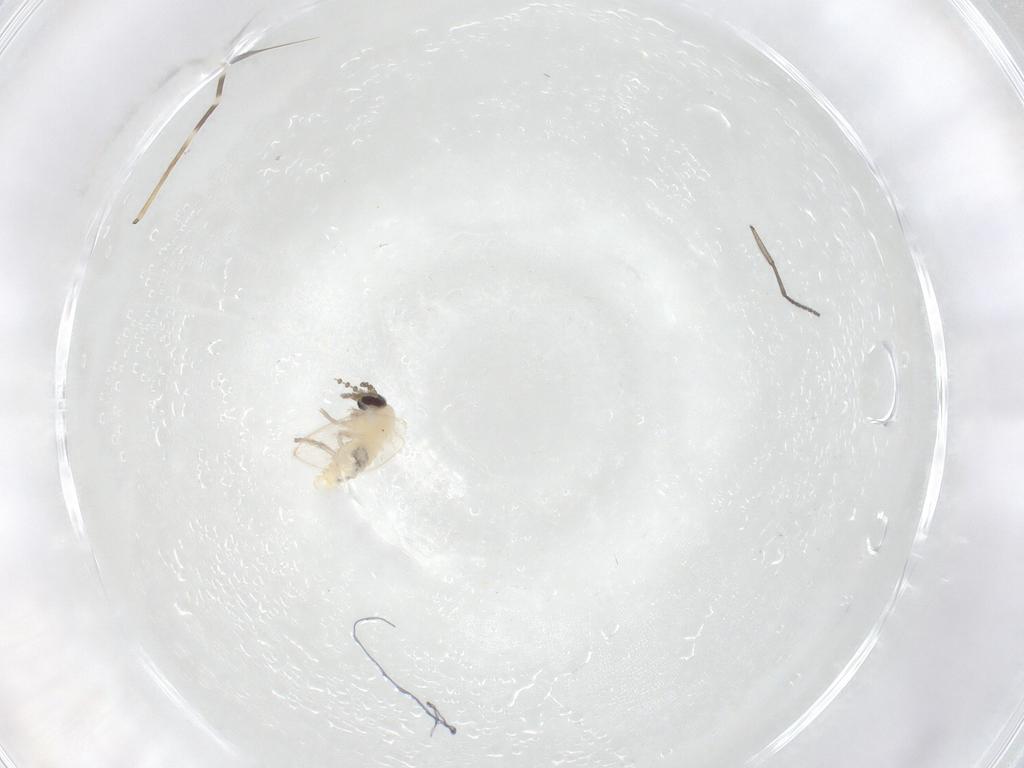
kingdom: Animalia
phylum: Arthropoda
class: Insecta
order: Diptera
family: Sciaridae
